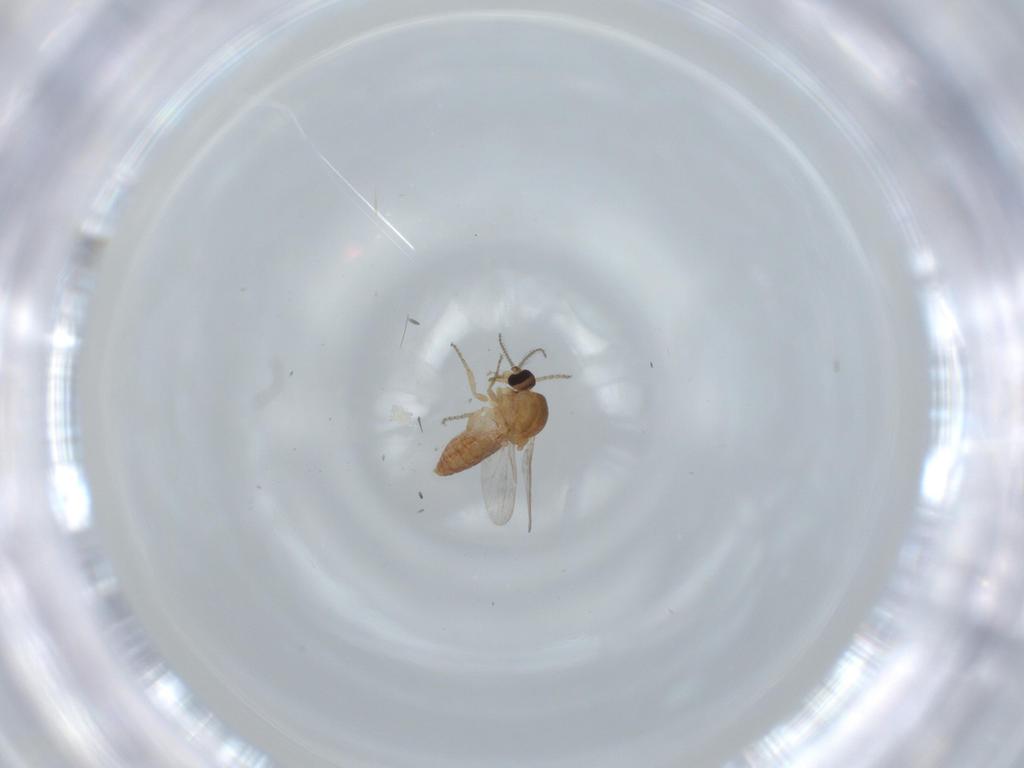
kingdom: Animalia
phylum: Arthropoda
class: Insecta
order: Diptera
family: Ceratopogonidae
